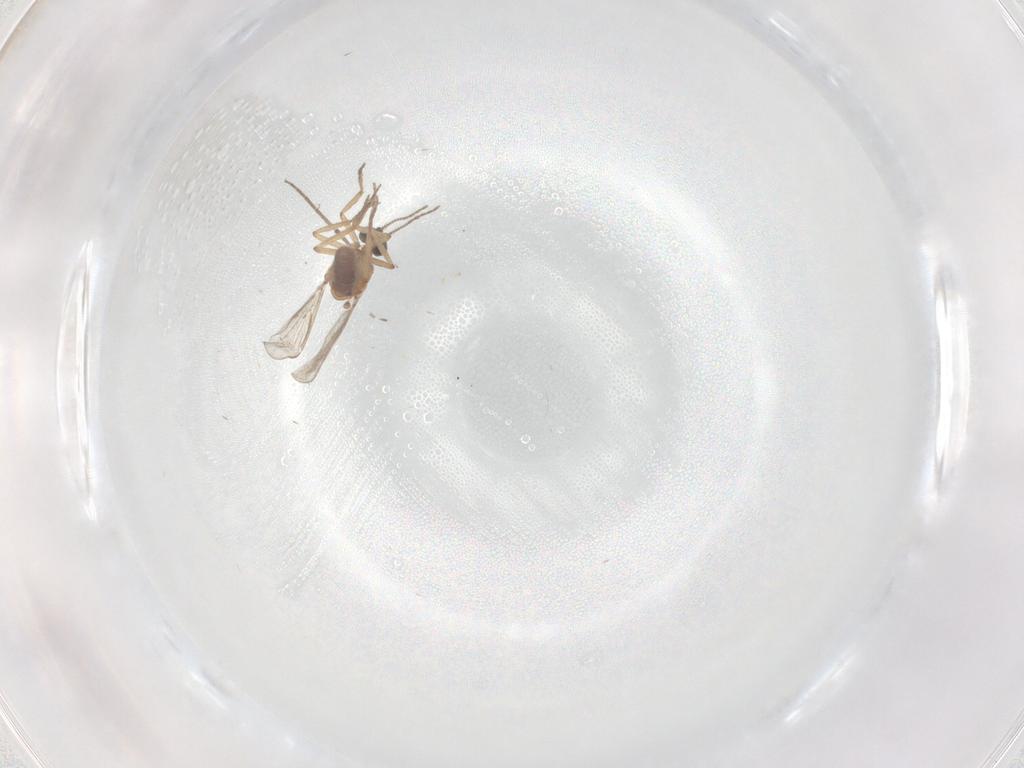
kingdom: Animalia
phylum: Arthropoda
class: Insecta
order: Diptera
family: Chironomidae
